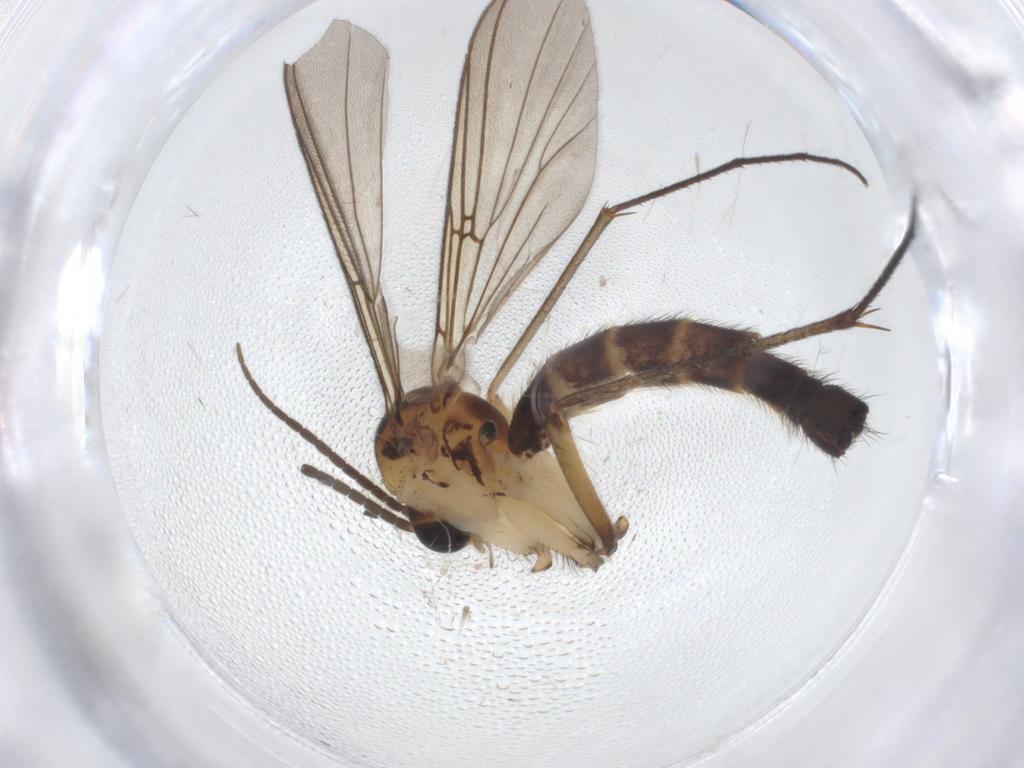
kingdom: Animalia
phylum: Arthropoda
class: Insecta
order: Diptera
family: Cecidomyiidae
